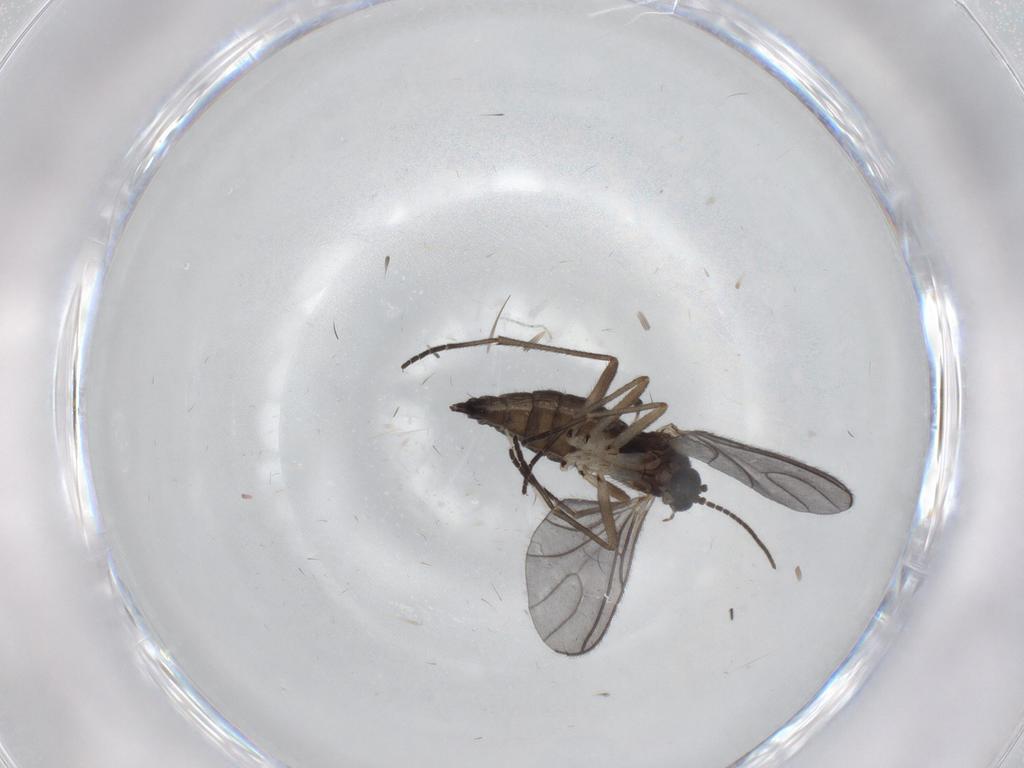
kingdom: Animalia
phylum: Arthropoda
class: Insecta
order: Diptera
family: Sciaridae
